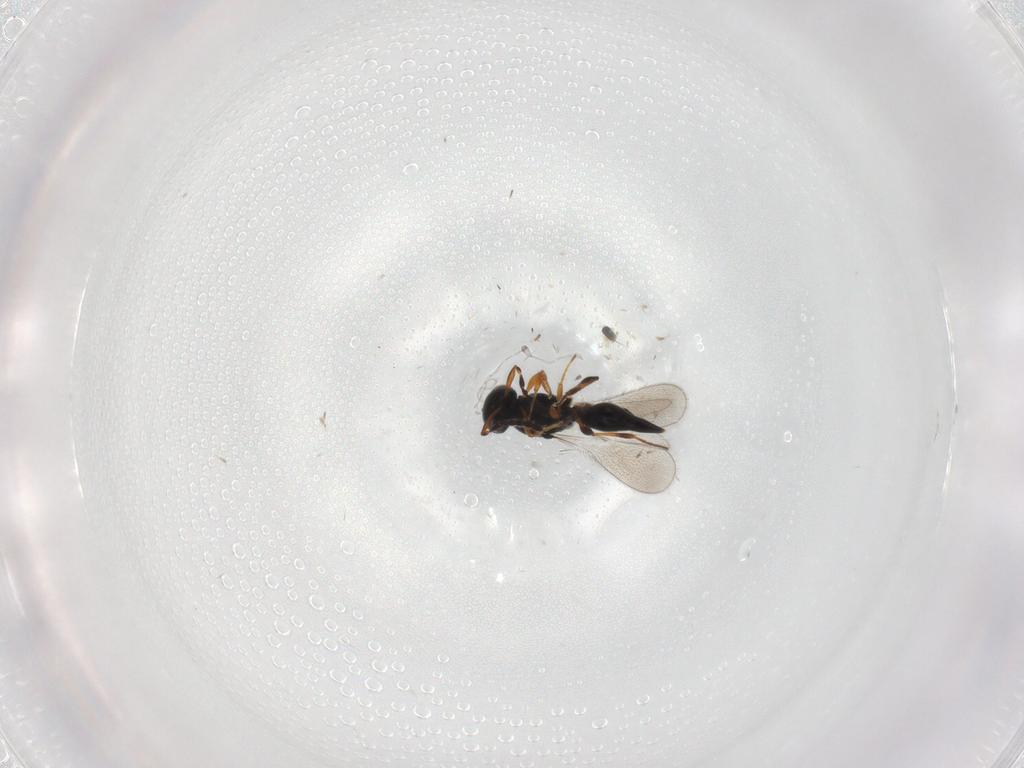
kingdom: Animalia
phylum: Arthropoda
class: Insecta
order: Hymenoptera
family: Platygastridae
